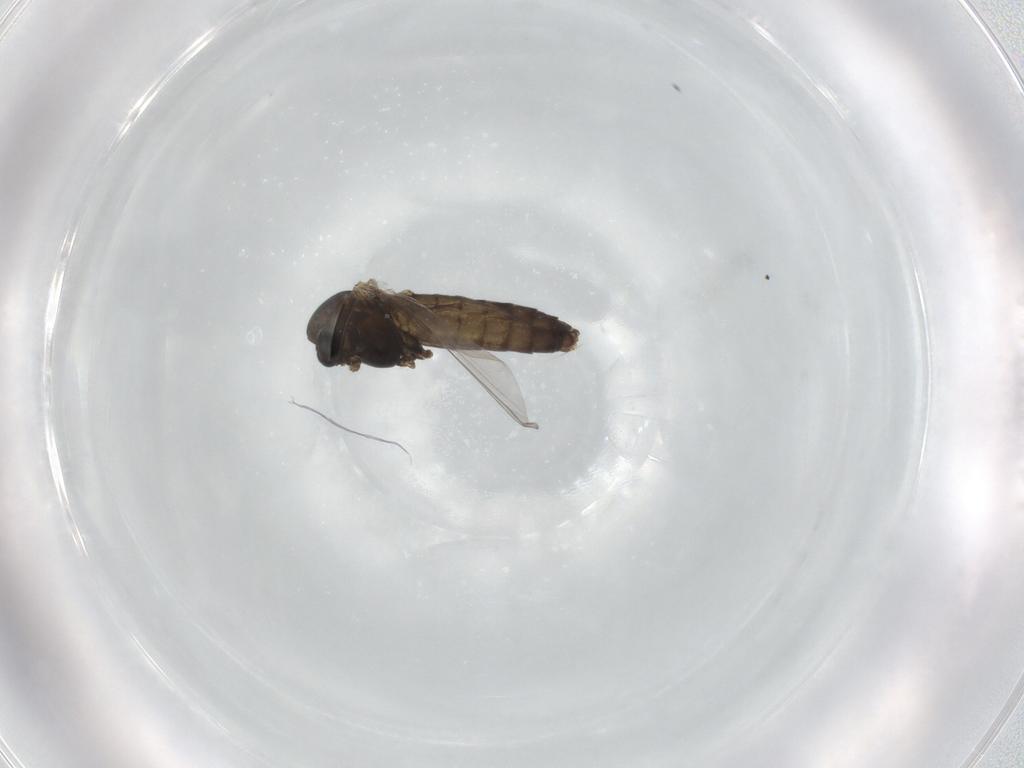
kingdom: Animalia
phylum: Arthropoda
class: Insecta
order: Diptera
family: Chironomidae
